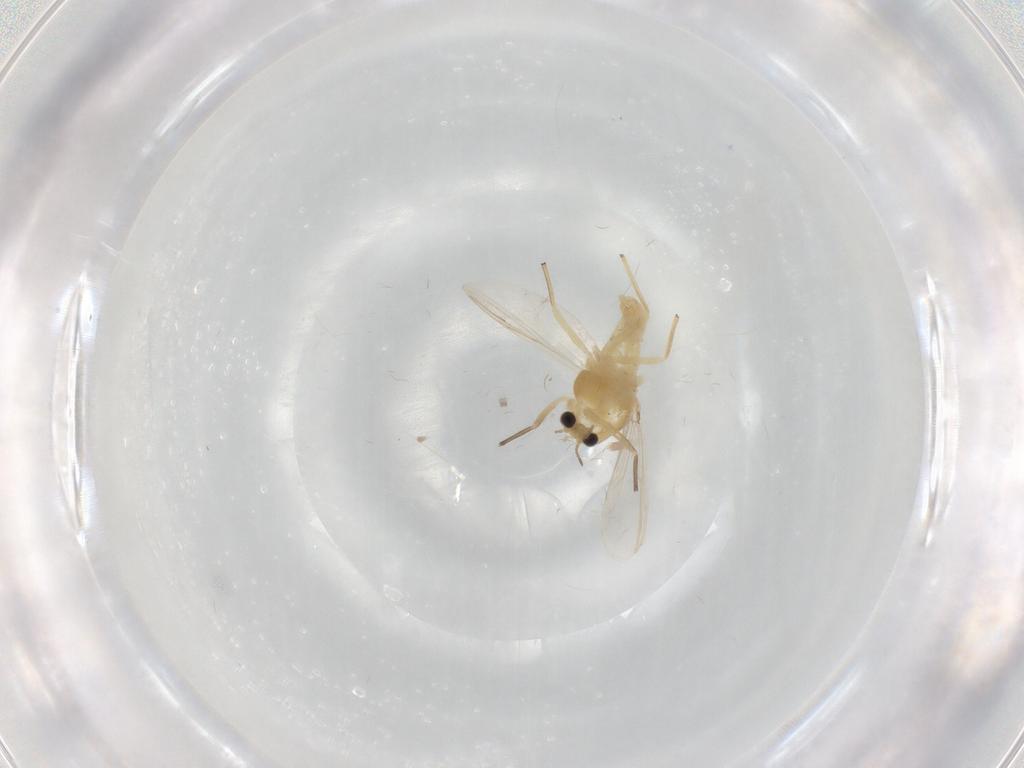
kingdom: Animalia
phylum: Arthropoda
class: Insecta
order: Diptera
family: Chironomidae
